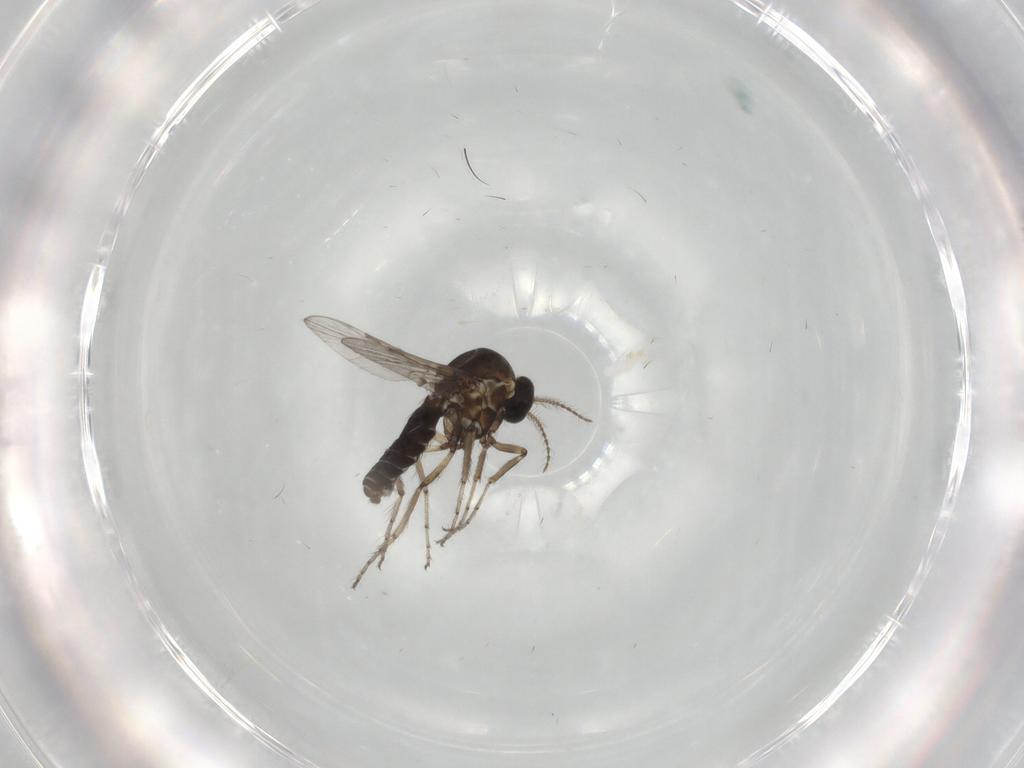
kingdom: Animalia
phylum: Arthropoda
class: Insecta
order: Diptera
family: Ceratopogonidae
